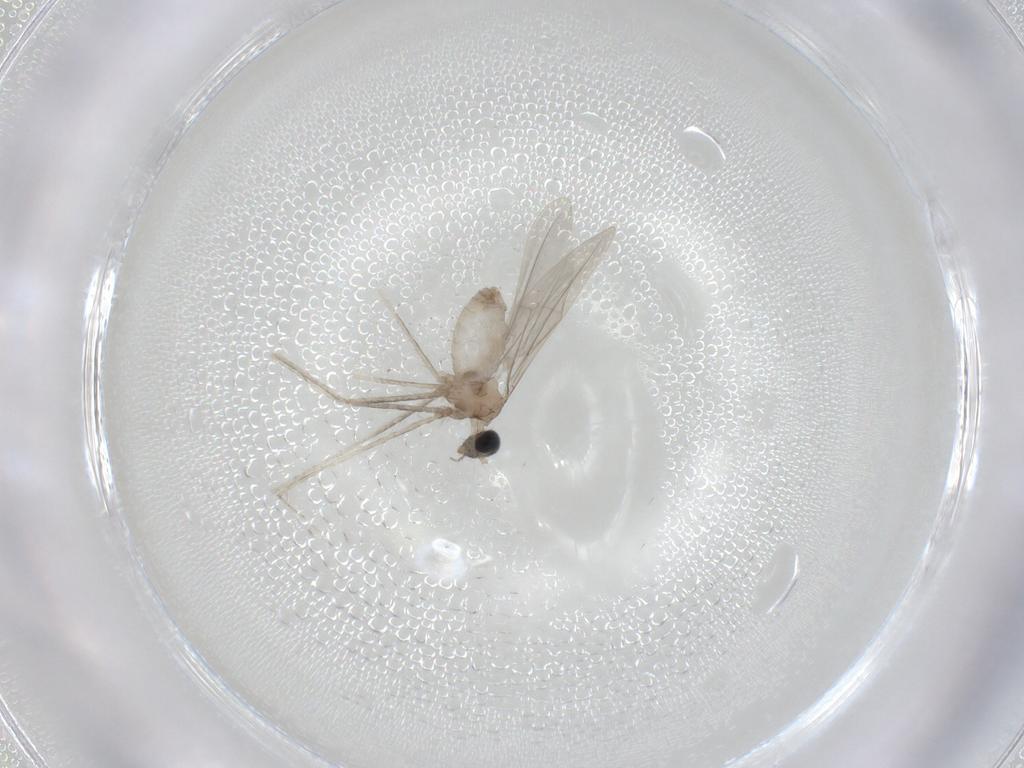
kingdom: Animalia
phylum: Arthropoda
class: Insecta
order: Diptera
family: Cecidomyiidae
